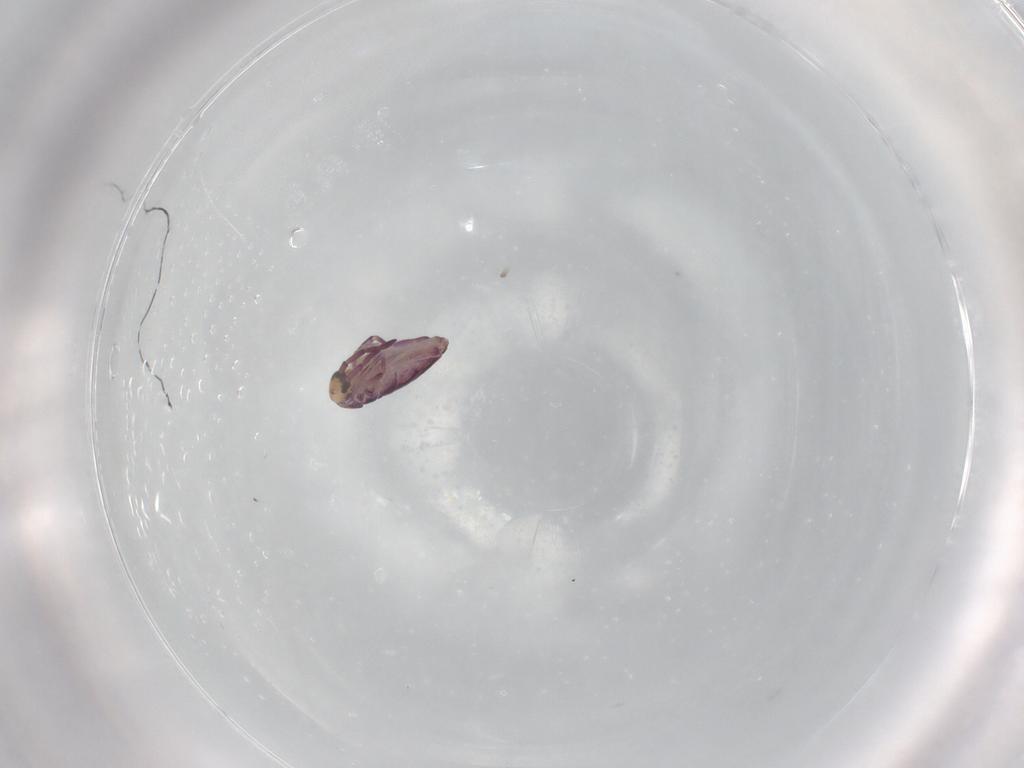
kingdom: Animalia
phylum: Arthropoda
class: Collembola
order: Entomobryomorpha
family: Entomobryidae
